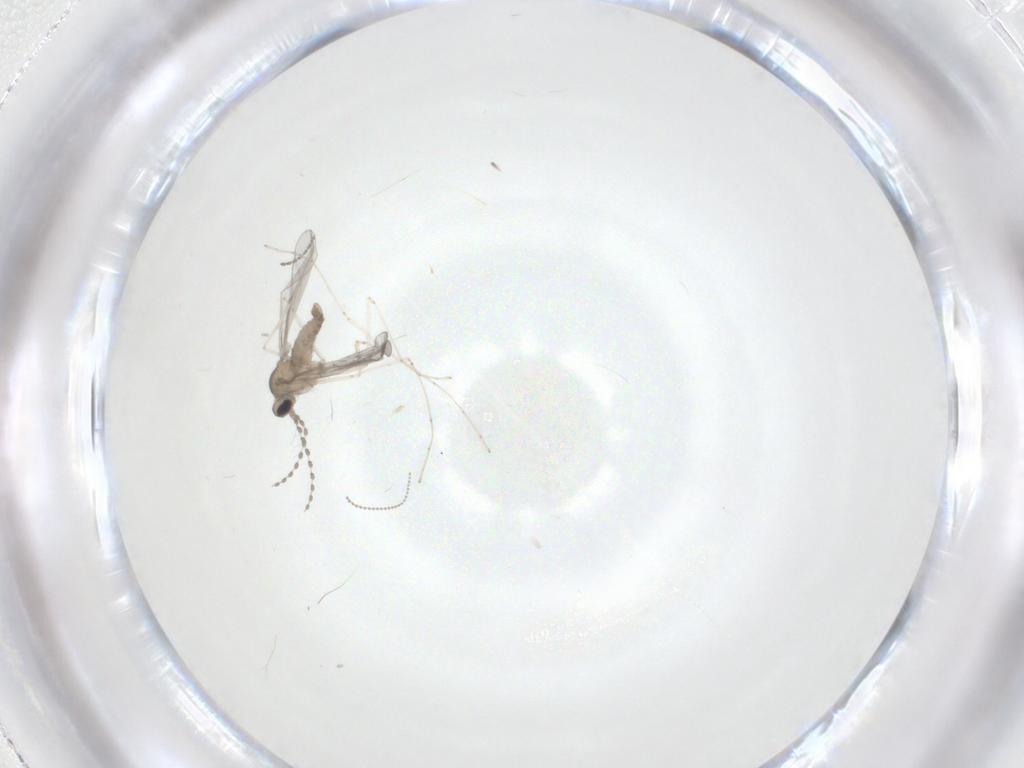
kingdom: Animalia
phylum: Arthropoda
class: Insecta
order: Diptera
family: Cecidomyiidae
